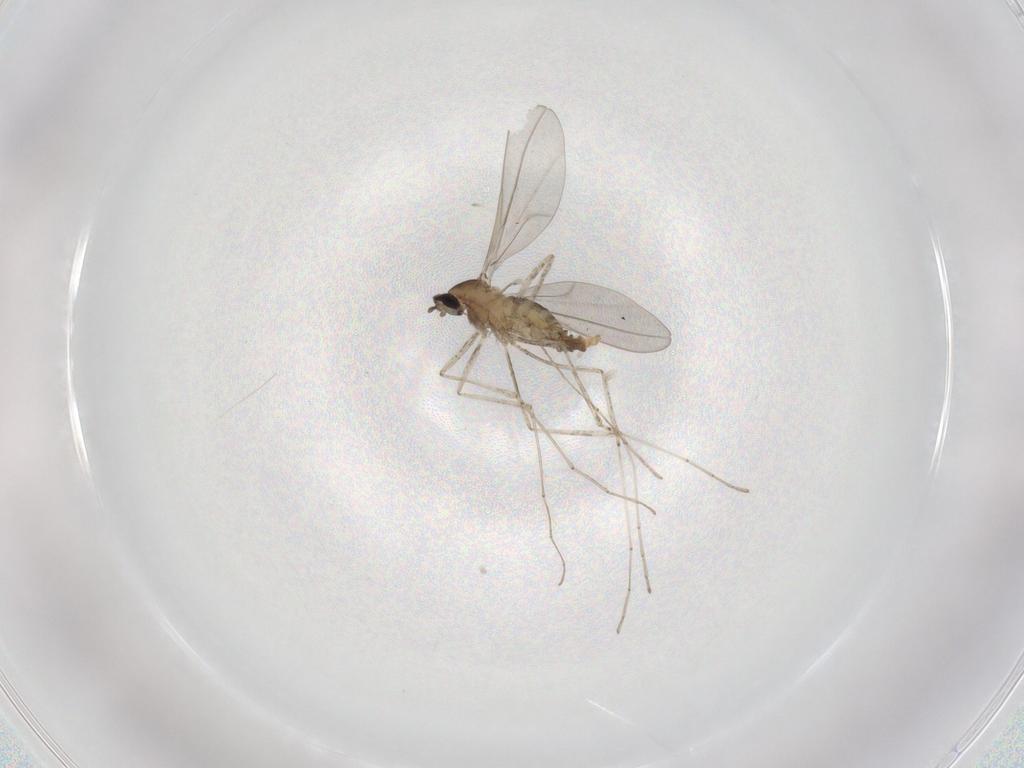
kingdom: Animalia
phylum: Arthropoda
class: Insecta
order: Diptera
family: Cecidomyiidae
